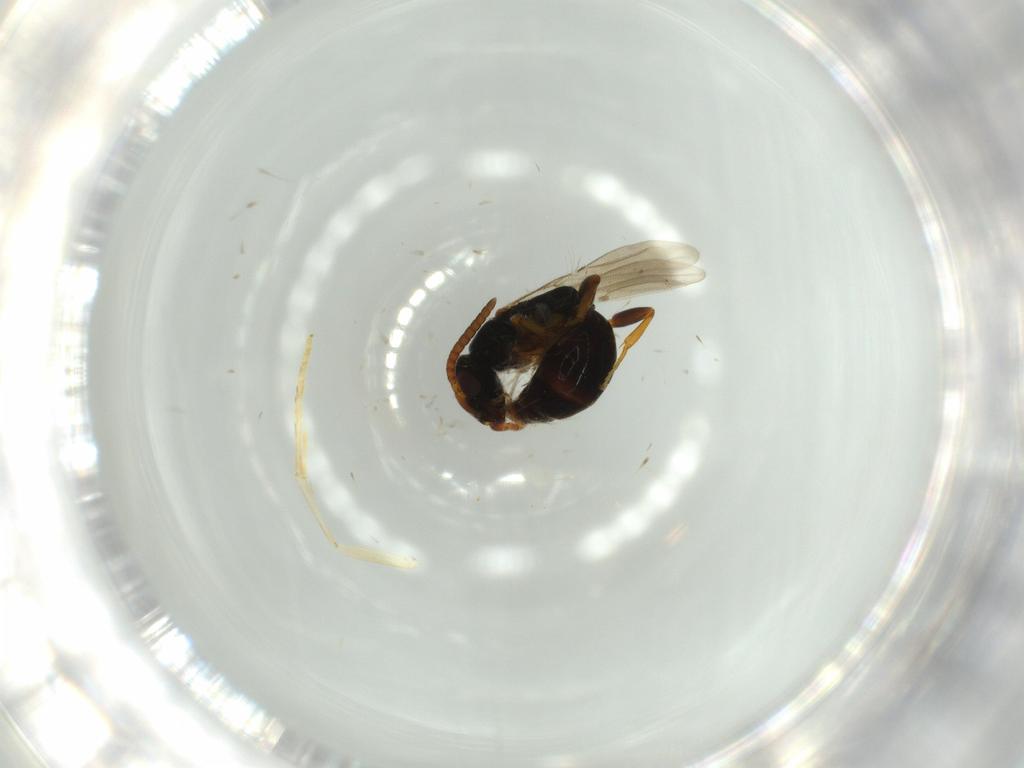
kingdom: Animalia
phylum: Arthropoda
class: Insecta
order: Hymenoptera
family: Bethylidae
